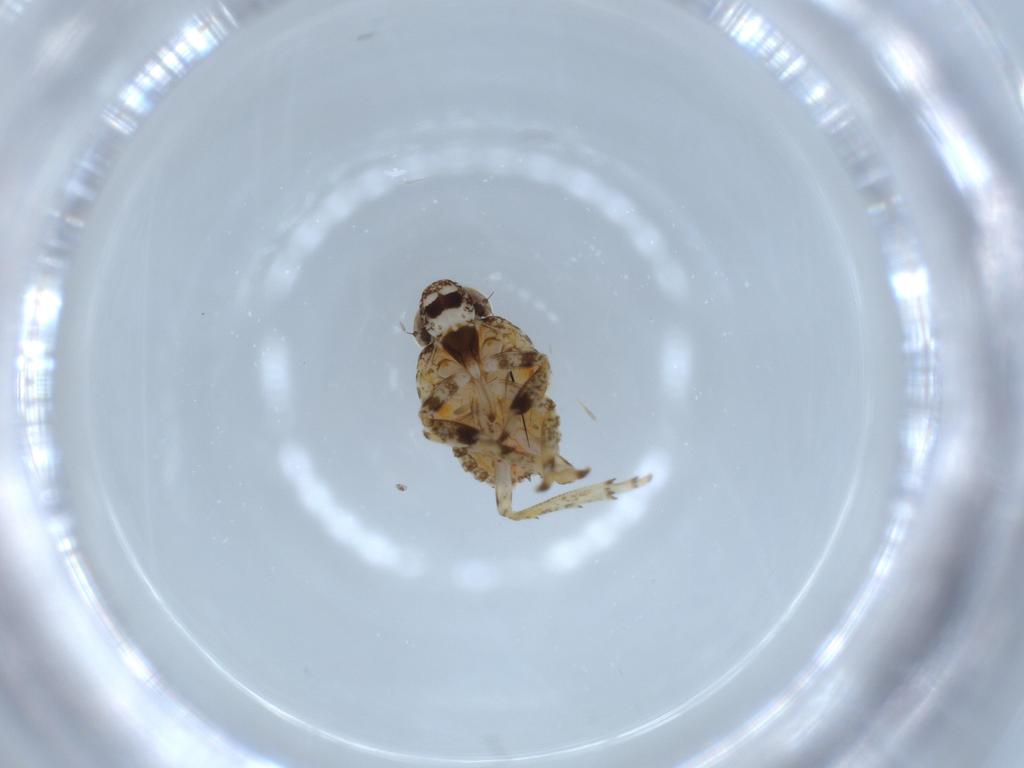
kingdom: Animalia
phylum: Arthropoda
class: Insecta
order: Hemiptera
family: Issidae
